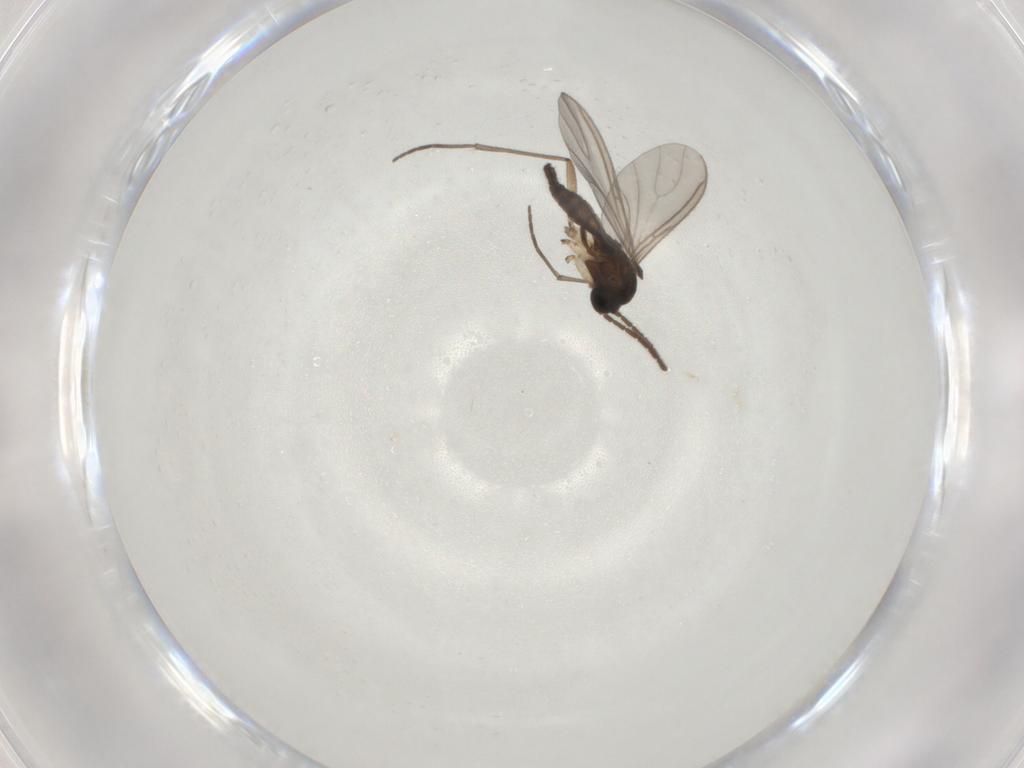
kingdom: Animalia
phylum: Arthropoda
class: Insecta
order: Diptera
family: Sciaridae
